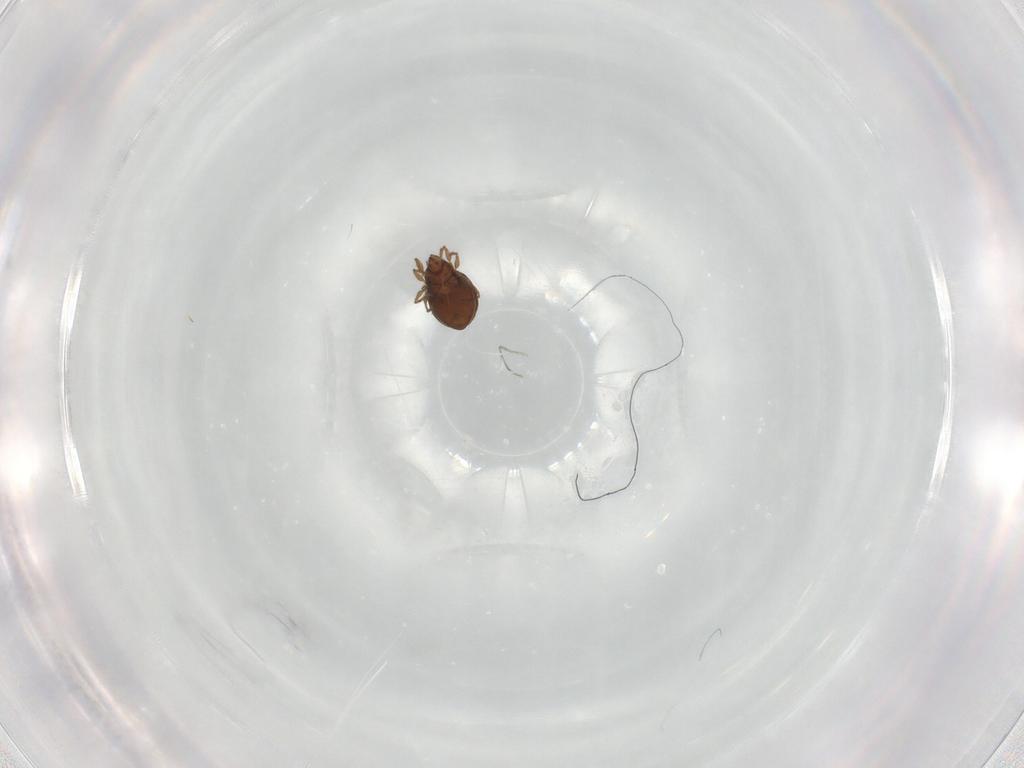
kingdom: Animalia
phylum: Arthropoda
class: Arachnida
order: Sarcoptiformes
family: Oribatulidae
